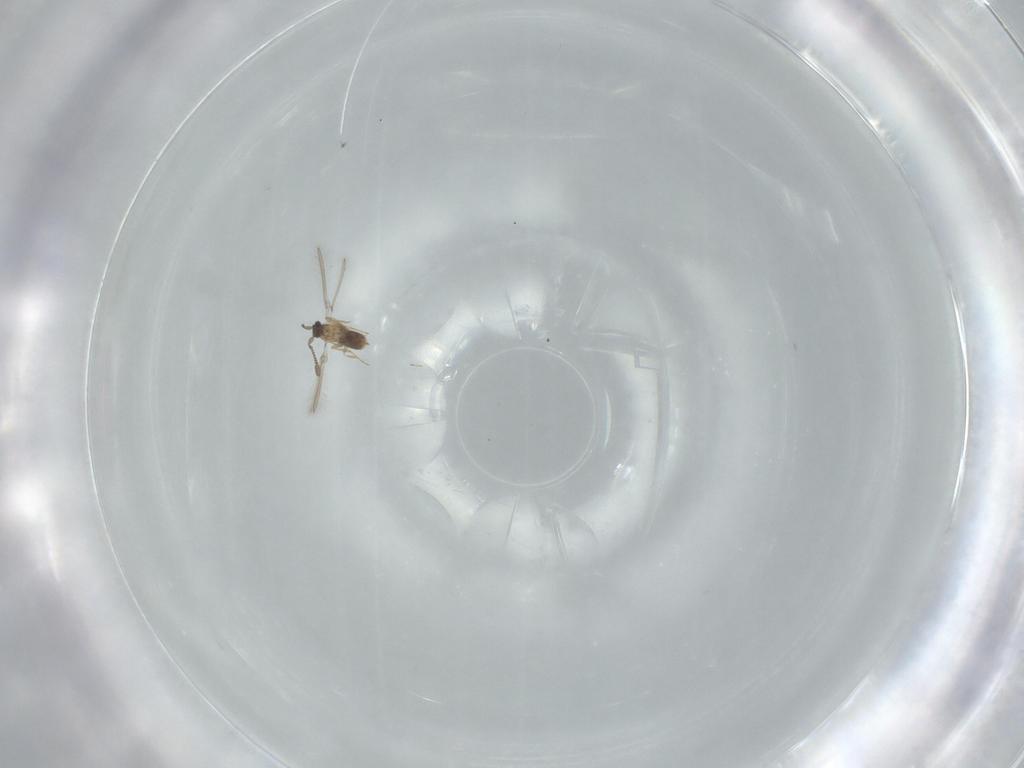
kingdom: Animalia
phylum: Arthropoda
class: Insecta
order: Hymenoptera
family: Mymaridae
